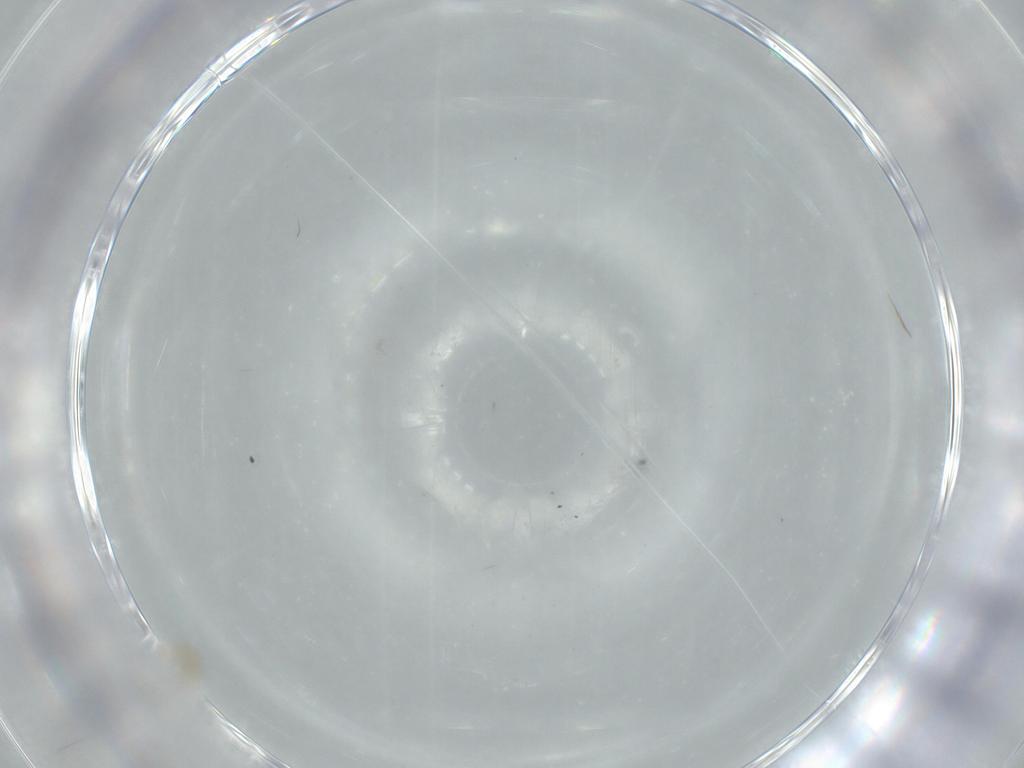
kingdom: Animalia
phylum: Arthropoda
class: Insecta
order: Diptera
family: Cecidomyiidae
